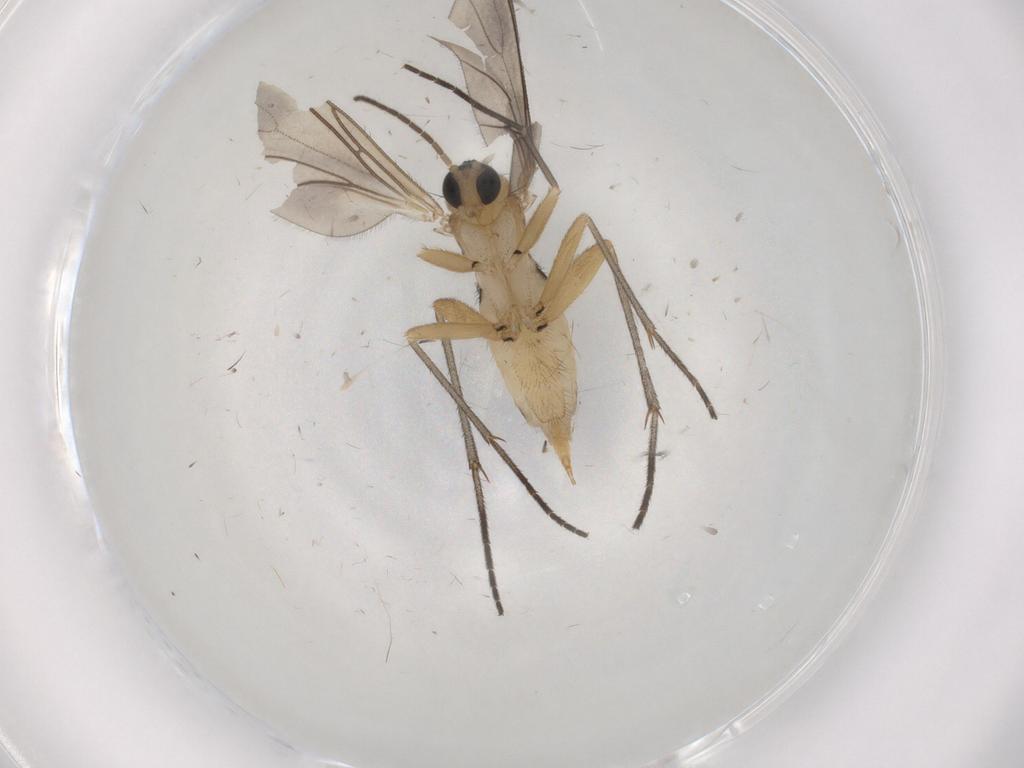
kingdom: Animalia
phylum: Arthropoda
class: Insecta
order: Diptera
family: Sciaridae
